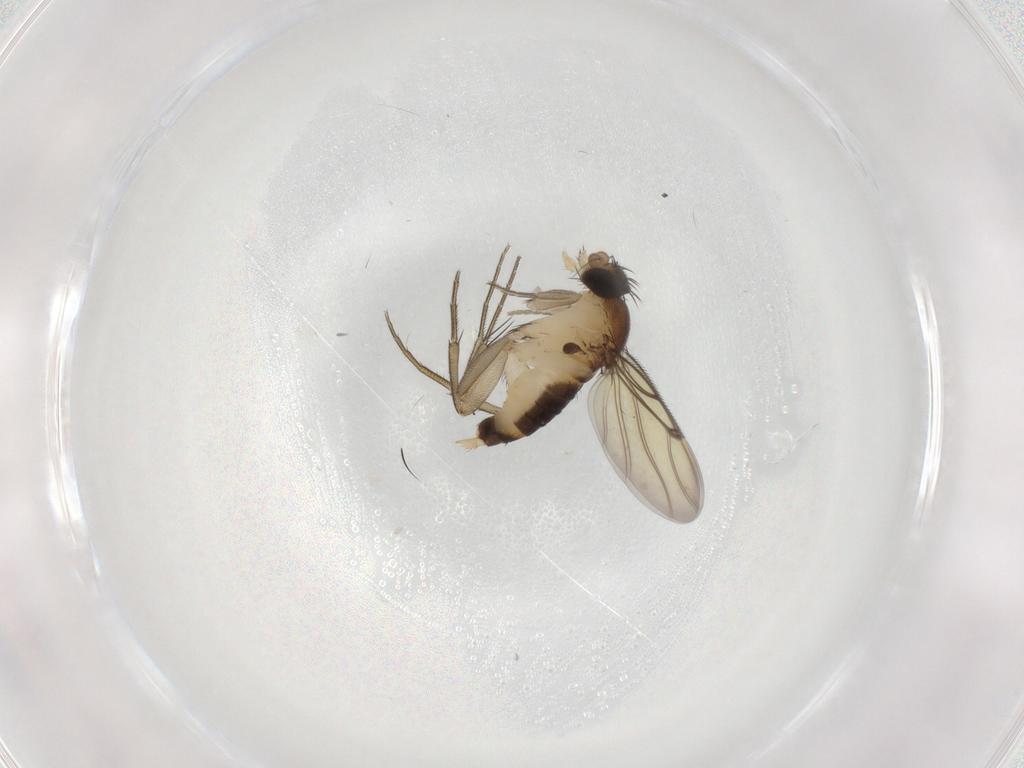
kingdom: Animalia
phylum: Arthropoda
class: Insecta
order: Diptera
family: Phoridae
